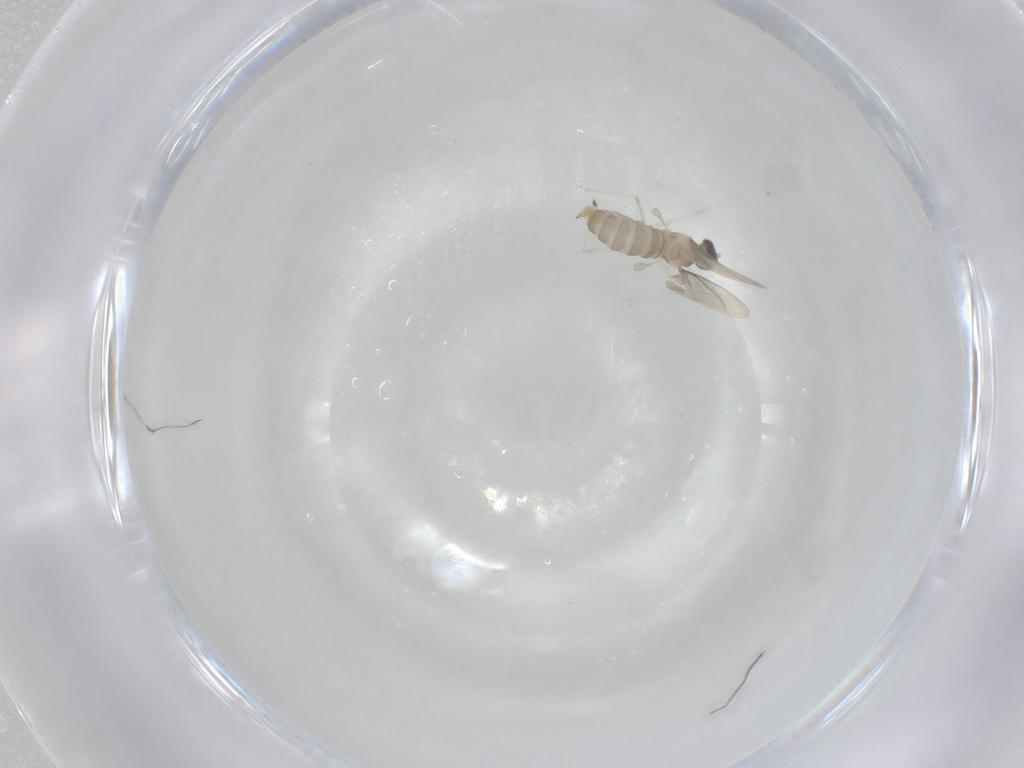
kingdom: Animalia
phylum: Arthropoda
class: Insecta
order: Diptera
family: Cecidomyiidae
